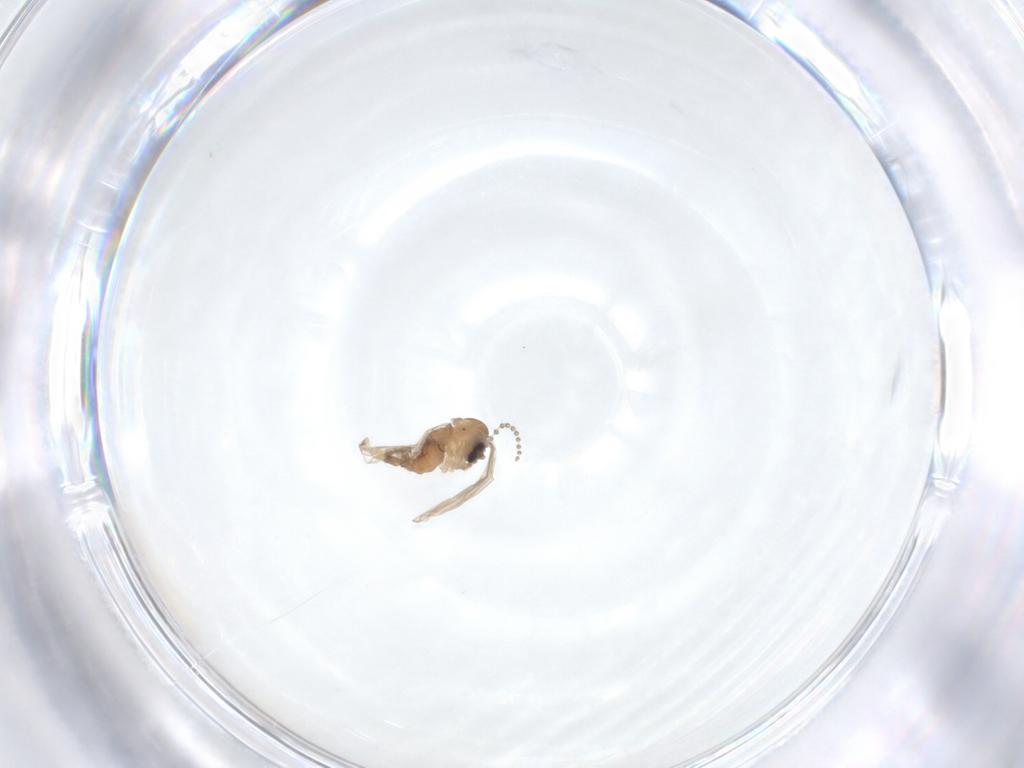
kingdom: Animalia
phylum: Arthropoda
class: Insecta
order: Diptera
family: Psychodidae
